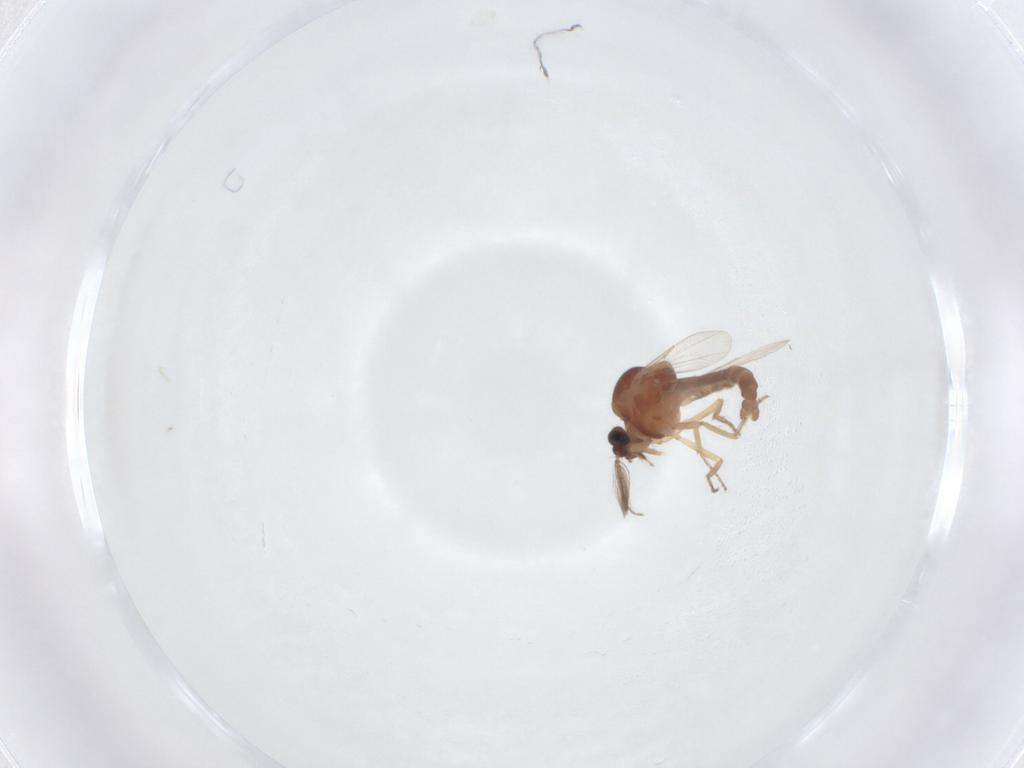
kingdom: Animalia
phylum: Arthropoda
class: Insecta
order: Diptera
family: Ceratopogonidae
